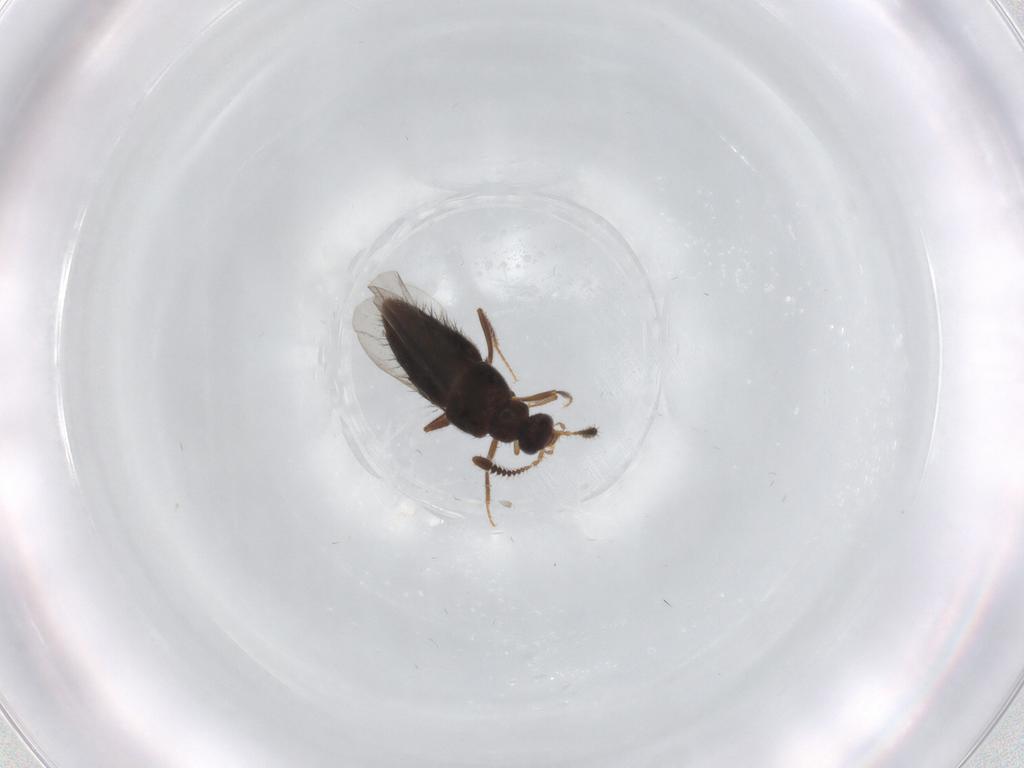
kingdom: Animalia
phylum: Arthropoda
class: Insecta
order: Coleoptera
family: Staphylinidae
